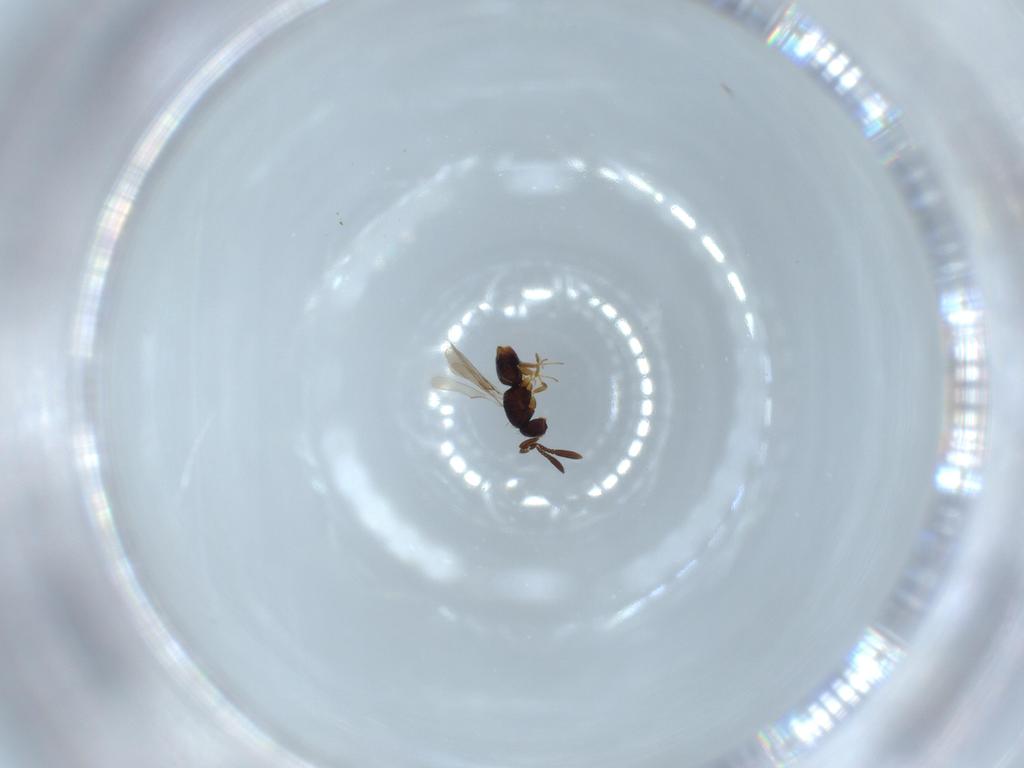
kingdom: Animalia
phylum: Arthropoda
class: Insecta
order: Hymenoptera
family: Mymaridae
